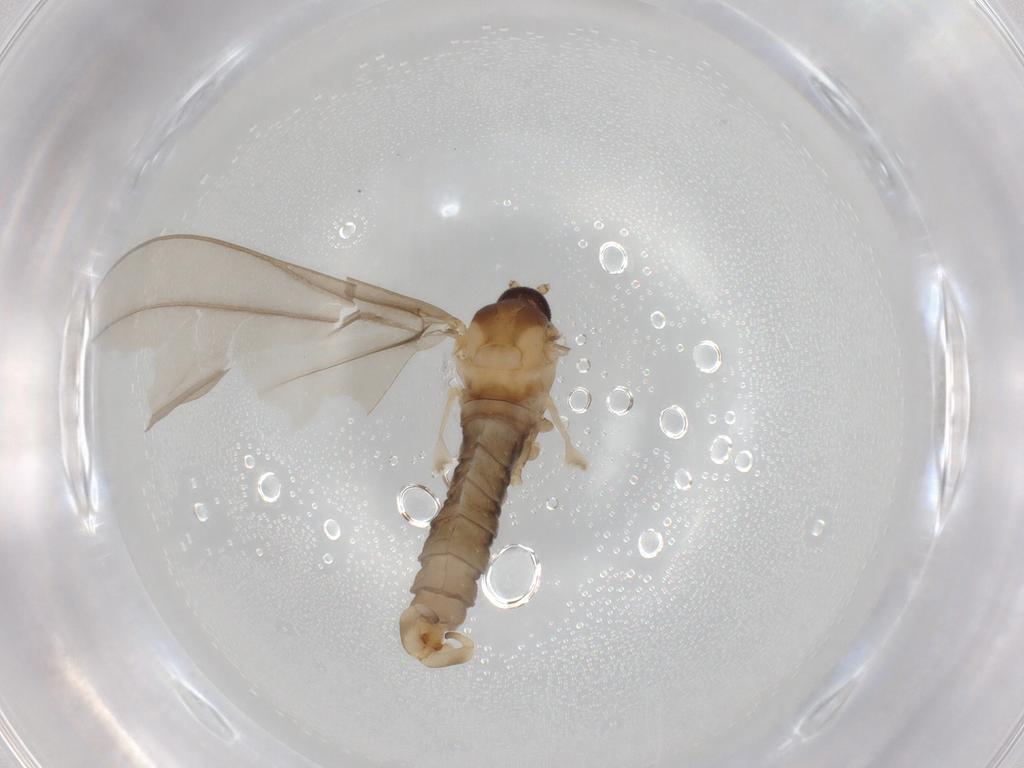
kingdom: Animalia
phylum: Arthropoda
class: Insecta
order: Diptera
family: Cecidomyiidae
